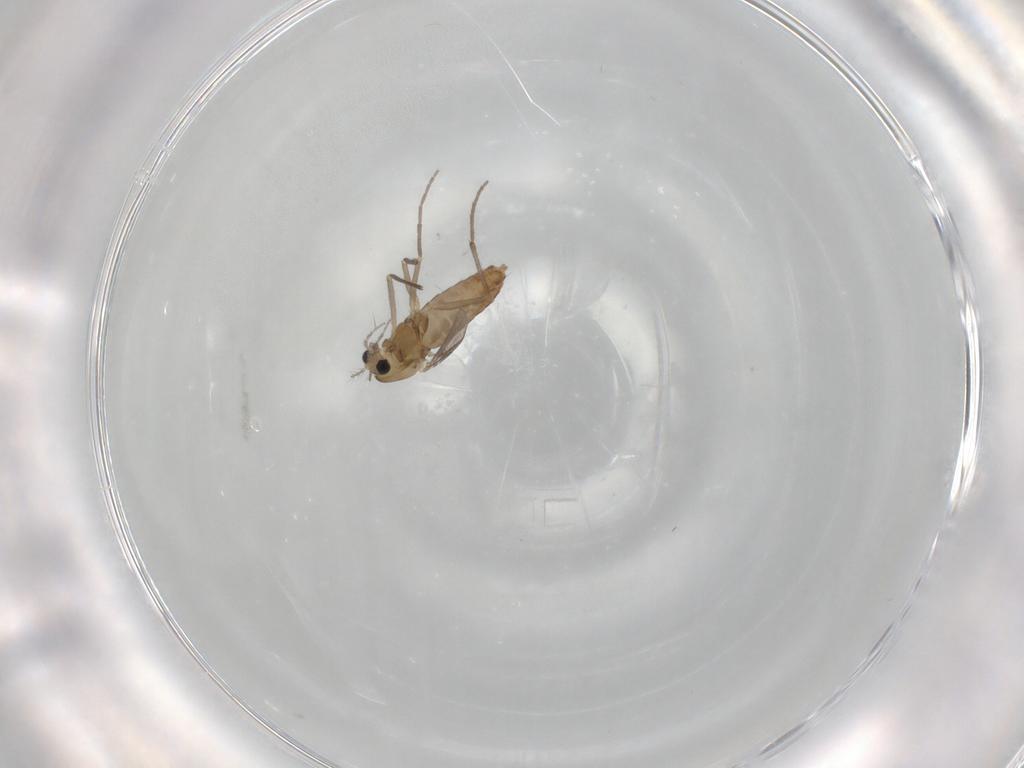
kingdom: Animalia
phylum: Arthropoda
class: Insecta
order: Diptera
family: Chironomidae
